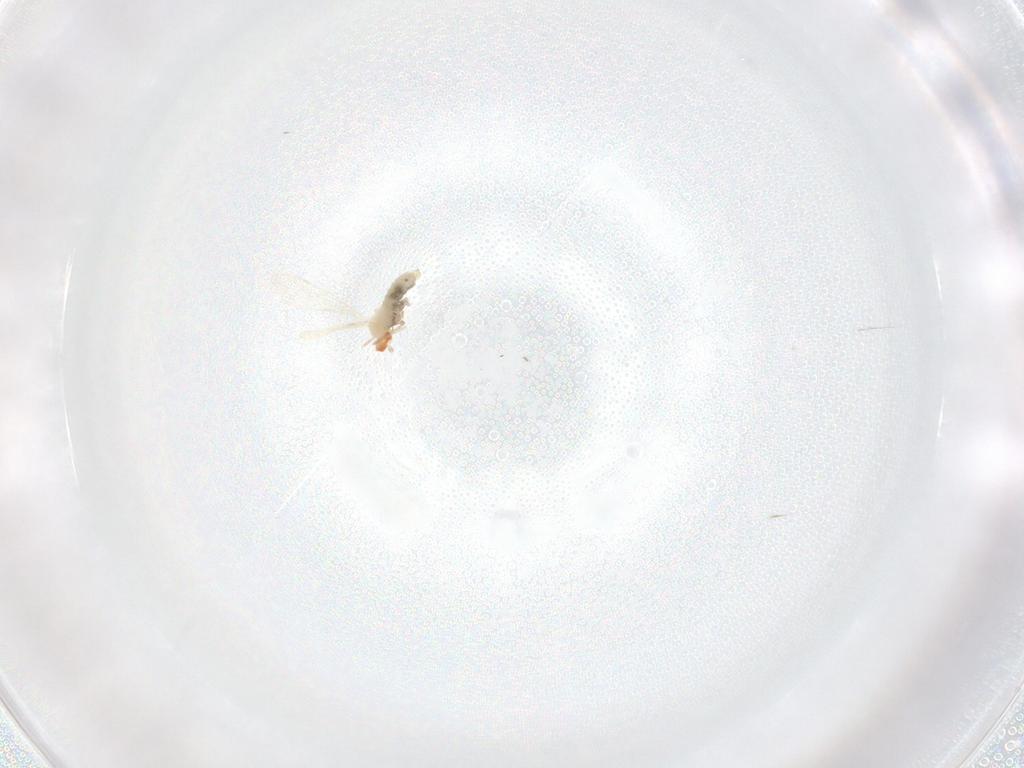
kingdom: Animalia
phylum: Arthropoda
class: Insecta
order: Diptera
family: Cecidomyiidae
